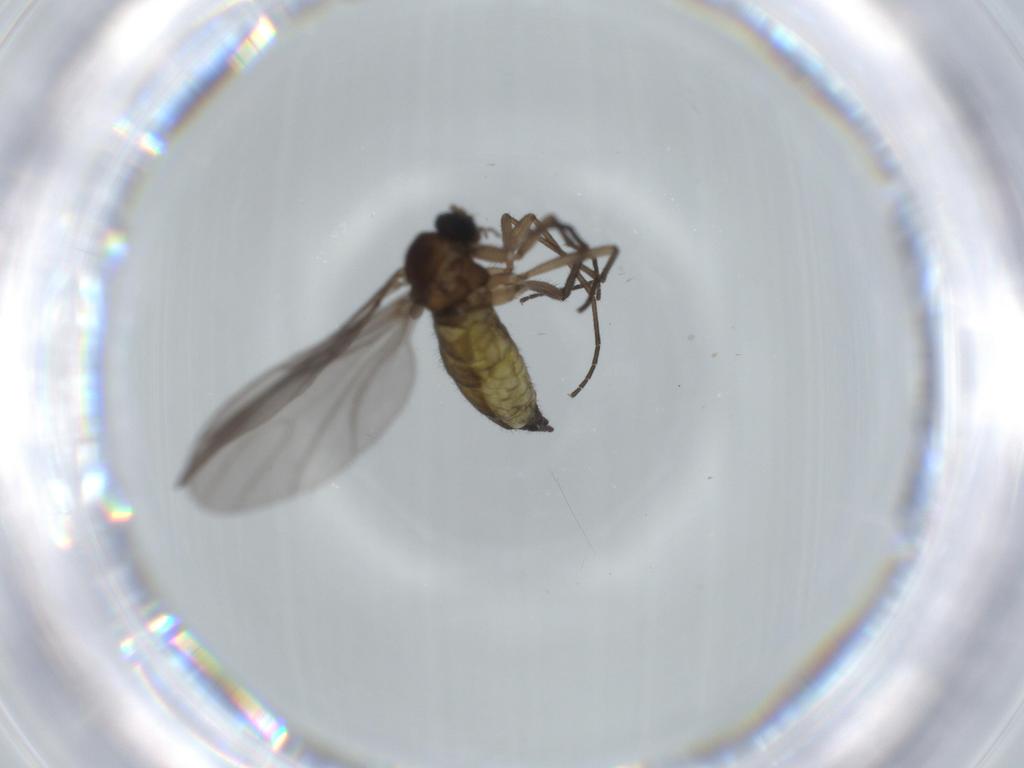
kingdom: Animalia
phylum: Arthropoda
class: Insecta
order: Diptera
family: Sciaridae
